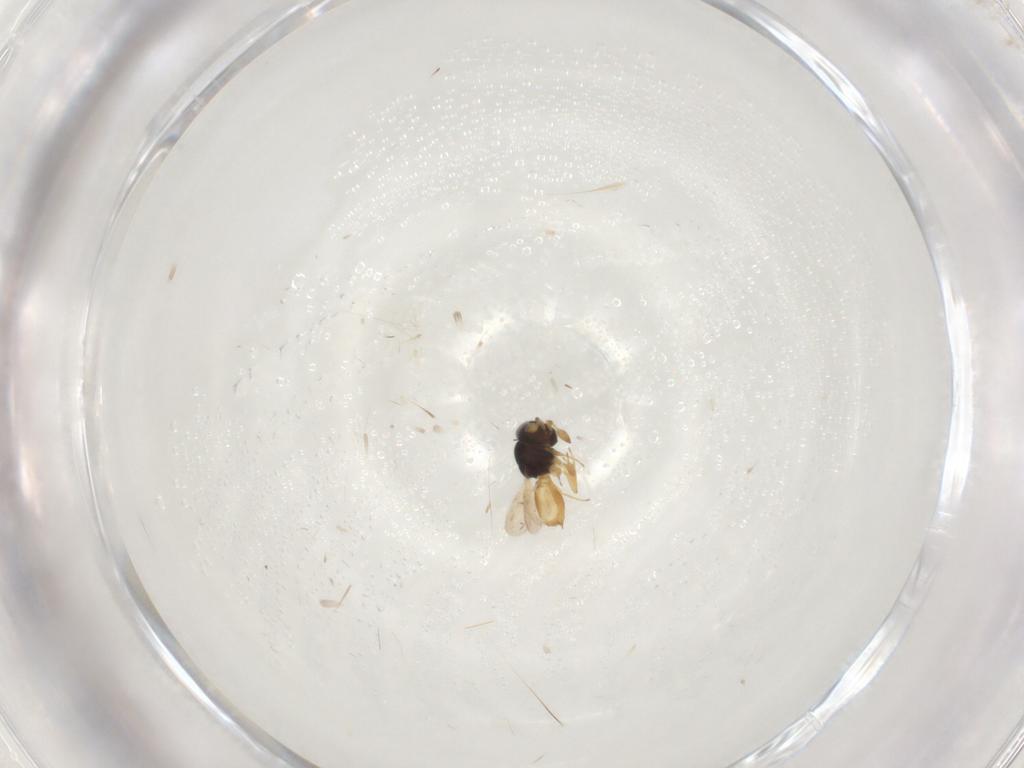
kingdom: Animalia
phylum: Arthropoda
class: Insecta
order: Hymenoptera
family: Scelionidae
